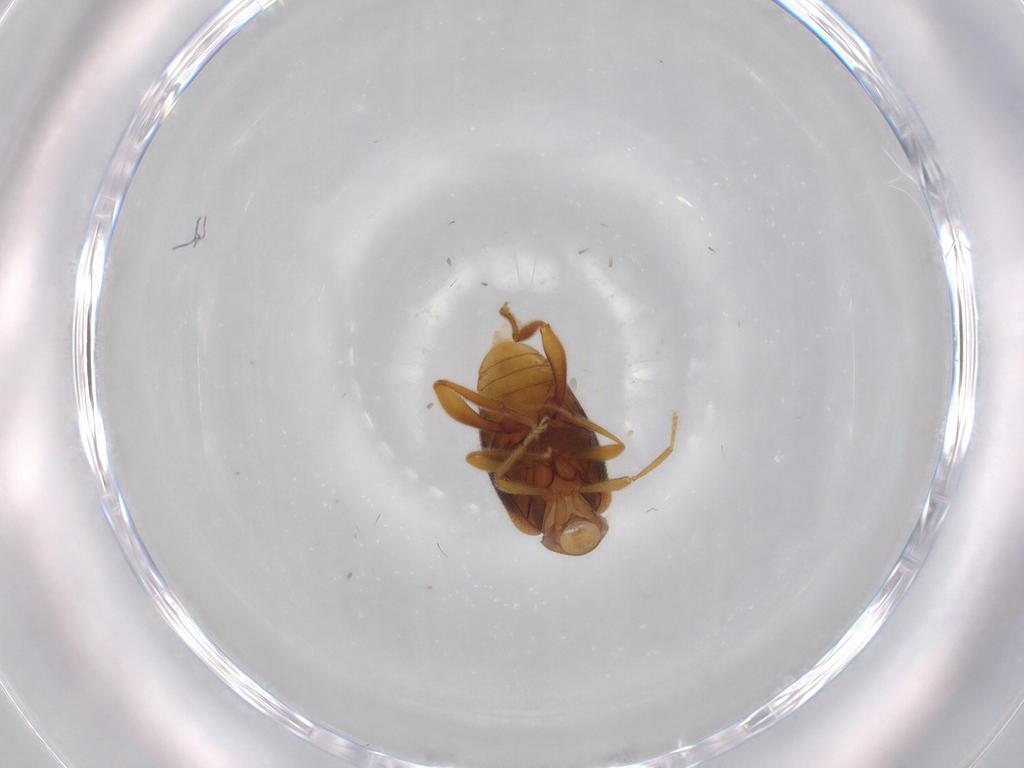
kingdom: Animalia
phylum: Arthropoda
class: Insecta
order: Coleoptera
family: Aderidae
